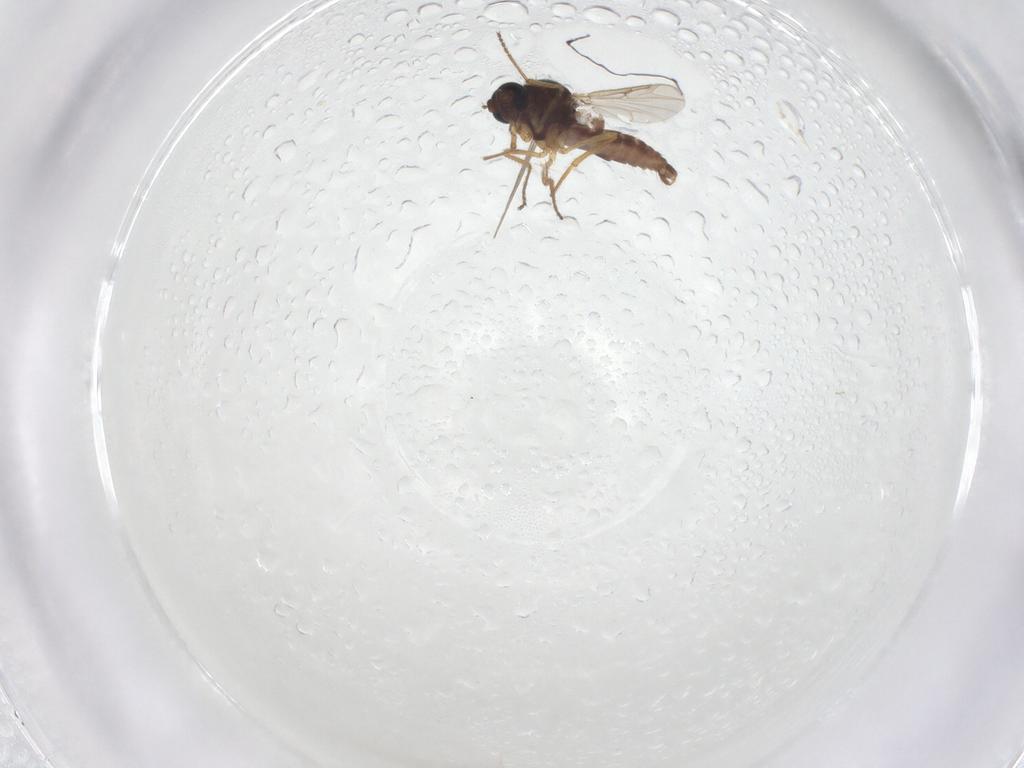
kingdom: Animalia
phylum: Arthropoda
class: Insecta
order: Diptera
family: Ceratopogonidae
